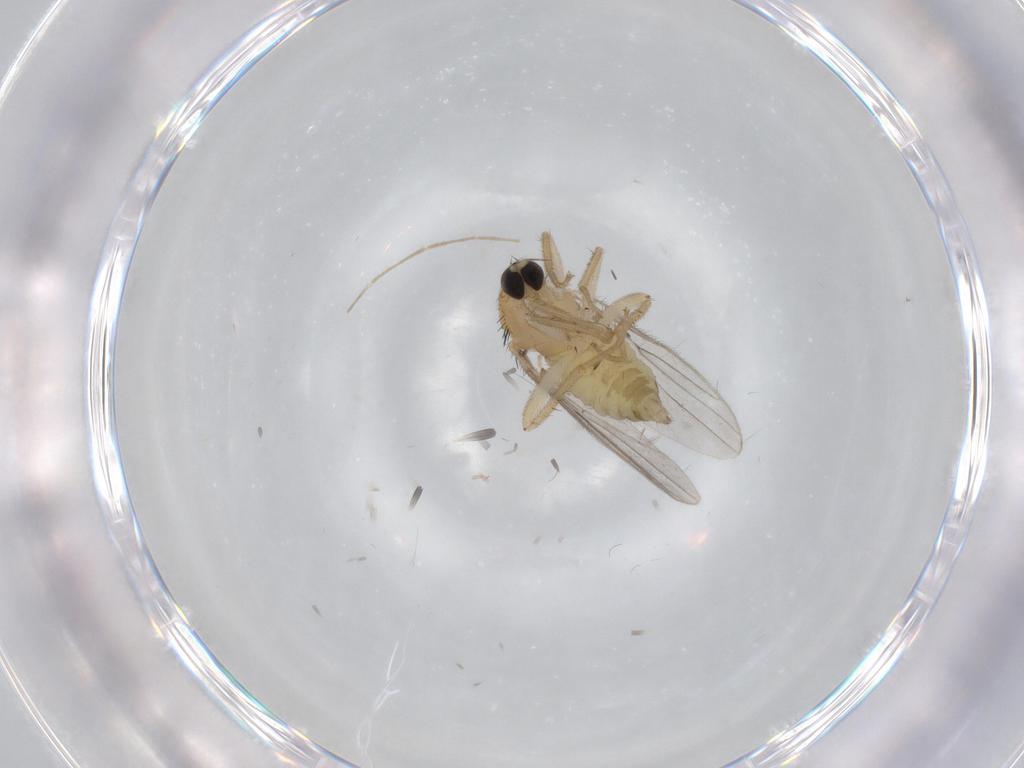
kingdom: Animalia
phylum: Arthropoda
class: Insecta
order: Diptera
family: Hybotidae
